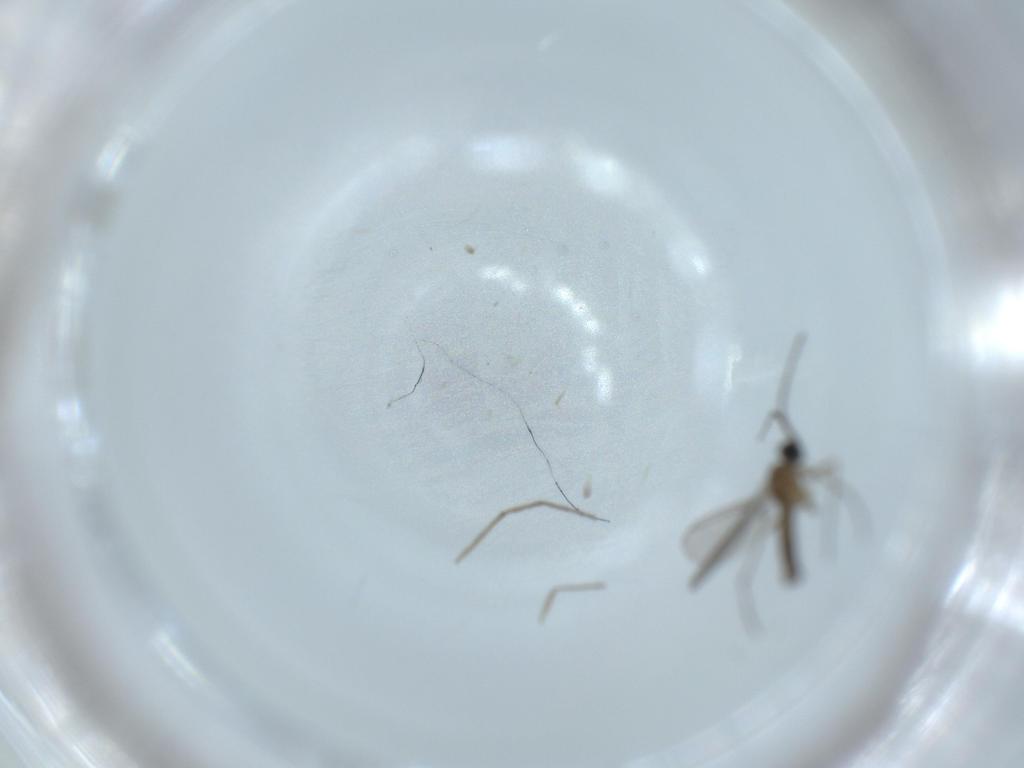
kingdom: Animalia
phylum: Arthropoda
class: Insecta
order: Diptera
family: Sciaridae
